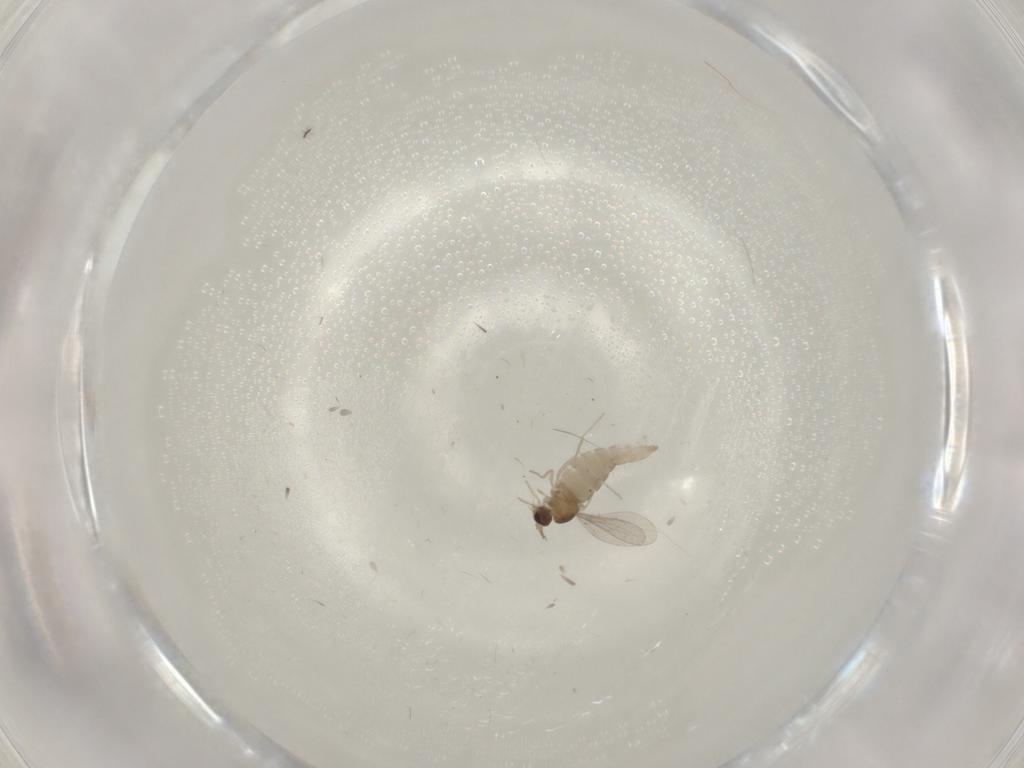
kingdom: Animalia
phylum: Arthropoda
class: Insecta
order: Diptera
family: Cecidomyiidae
